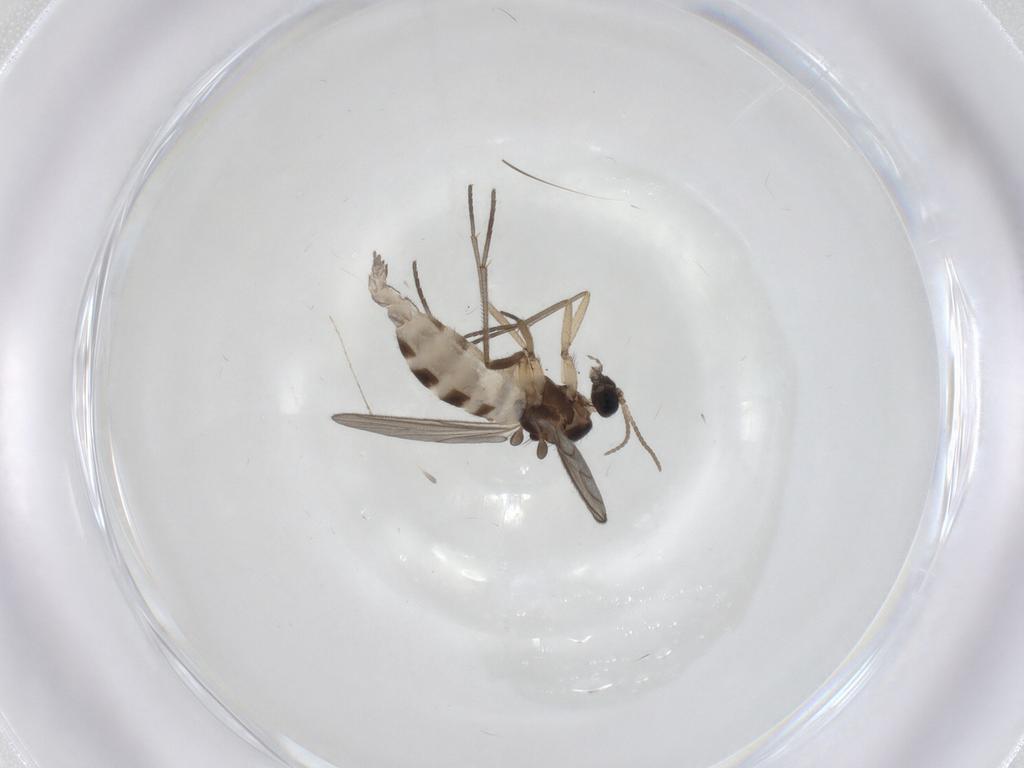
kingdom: Animalia
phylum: Arthropoda
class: Insecta
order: Diptera
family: Sciaridae
